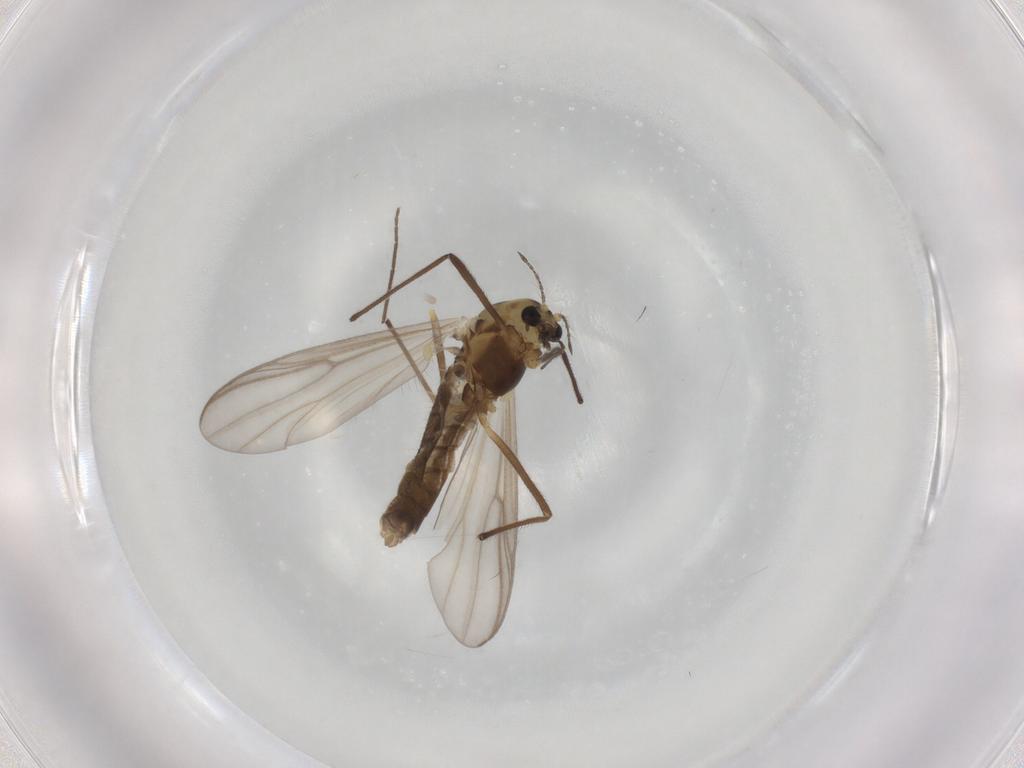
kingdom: Animalia
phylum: Arthropoda
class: Insecta
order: Diptera
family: Chironomidae
